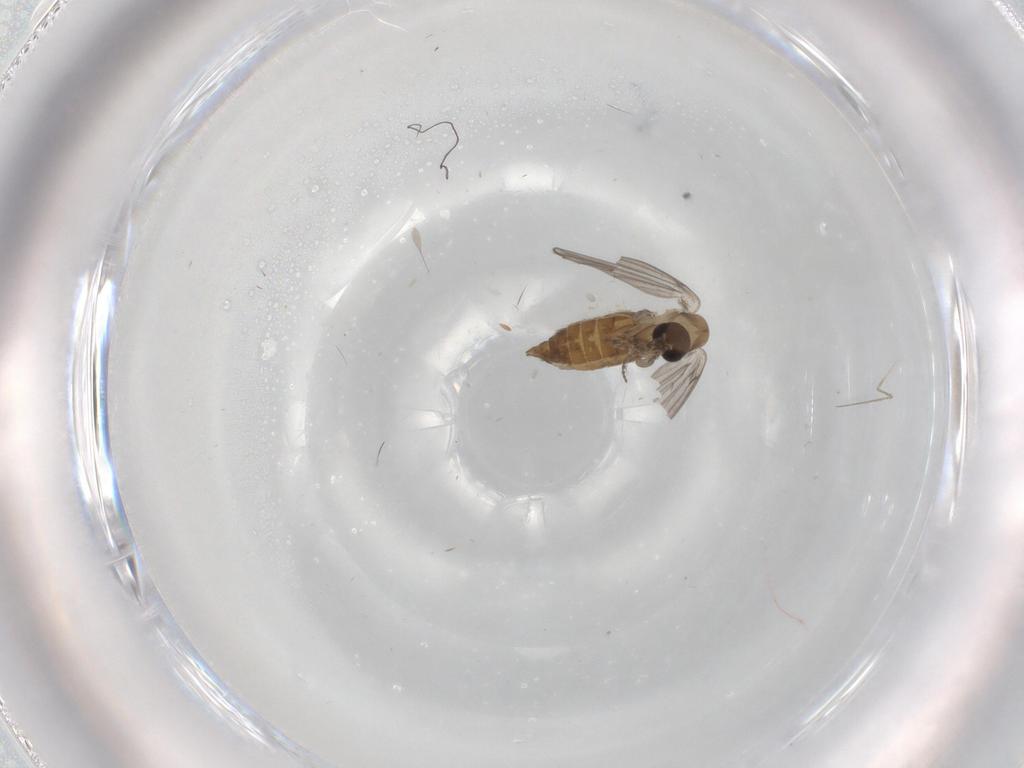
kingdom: Animalia
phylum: Arthropoda
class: Insecta
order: Diptera
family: Psychodidae
